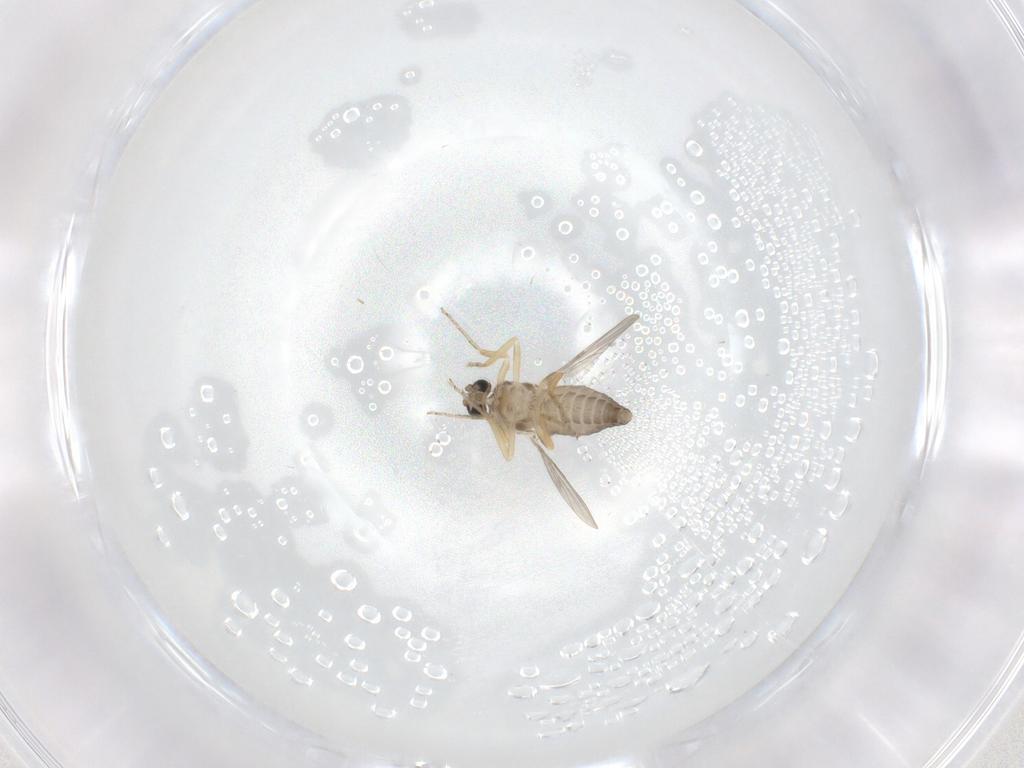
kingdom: Animalia
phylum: Arthropoda
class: Insecta
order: Diptera
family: Ceratopogonidae
